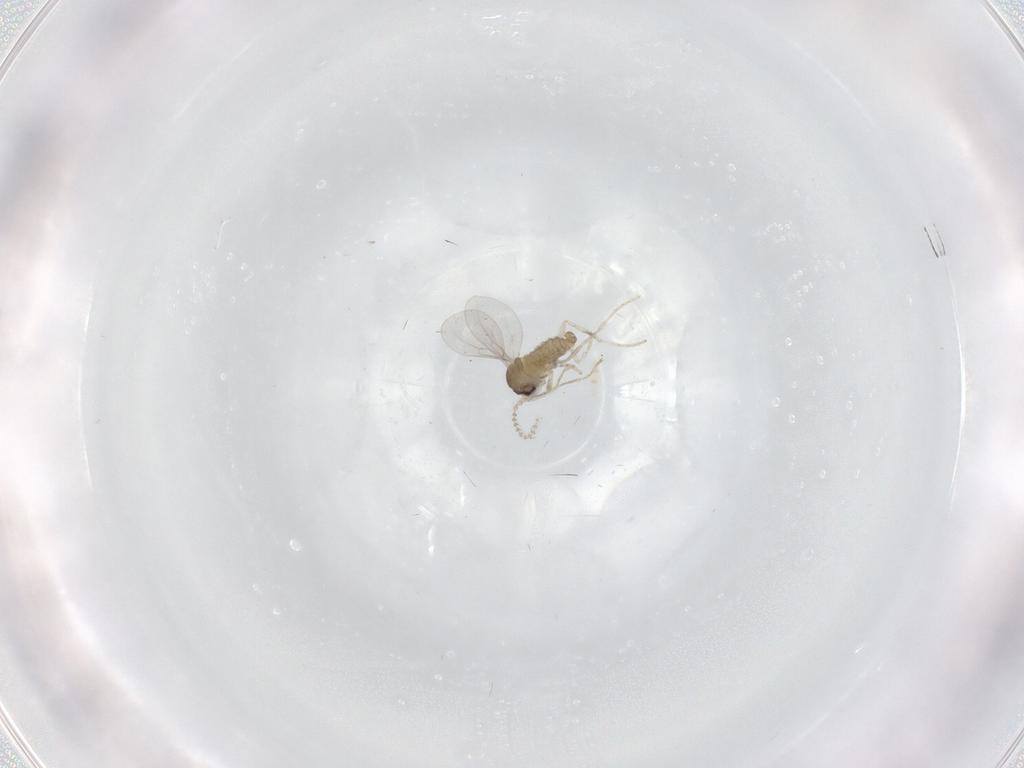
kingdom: Animalia
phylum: Arthropoda
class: Insecta
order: Diptera
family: Cecidomyiidae
